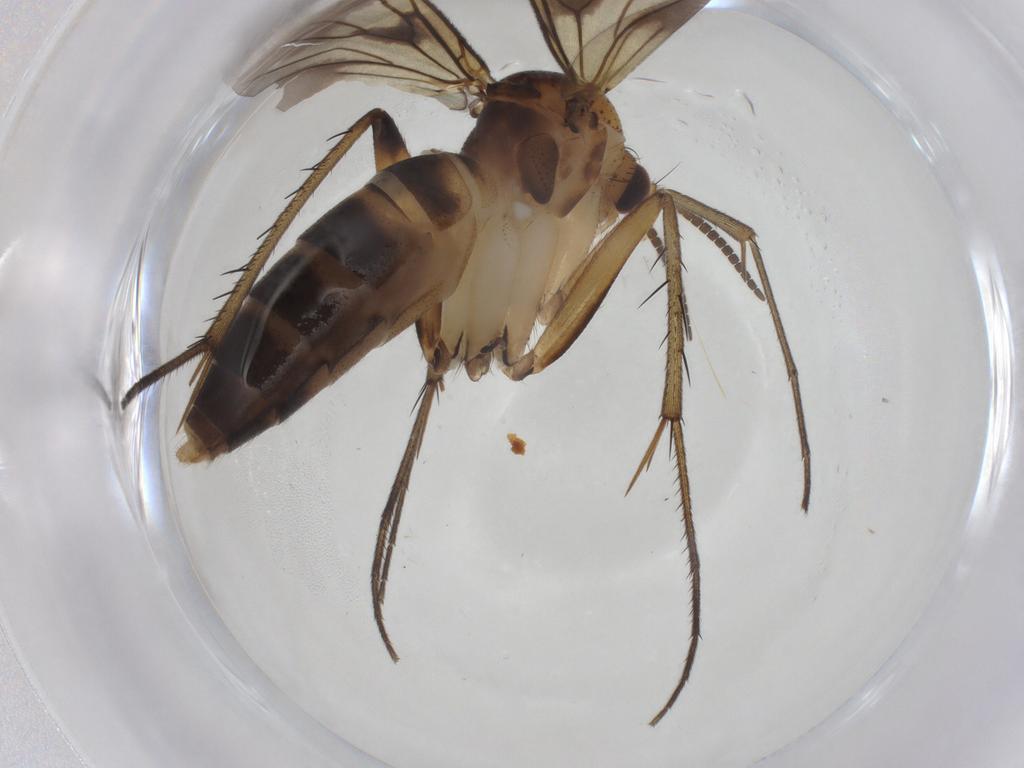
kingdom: Animalia
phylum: Arthropoda
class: Insecta
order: Diptera
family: Mycetophilidae
